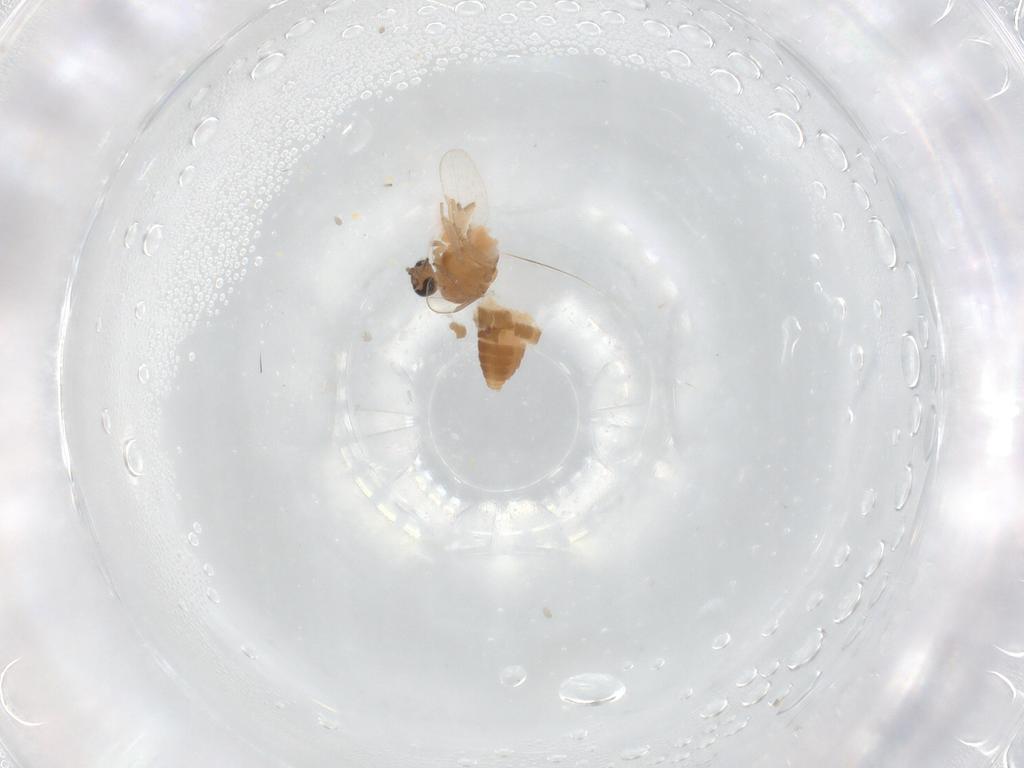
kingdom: Animalia
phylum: Arthropoda
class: Insecta
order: Diptera
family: Ceratopogonidae
